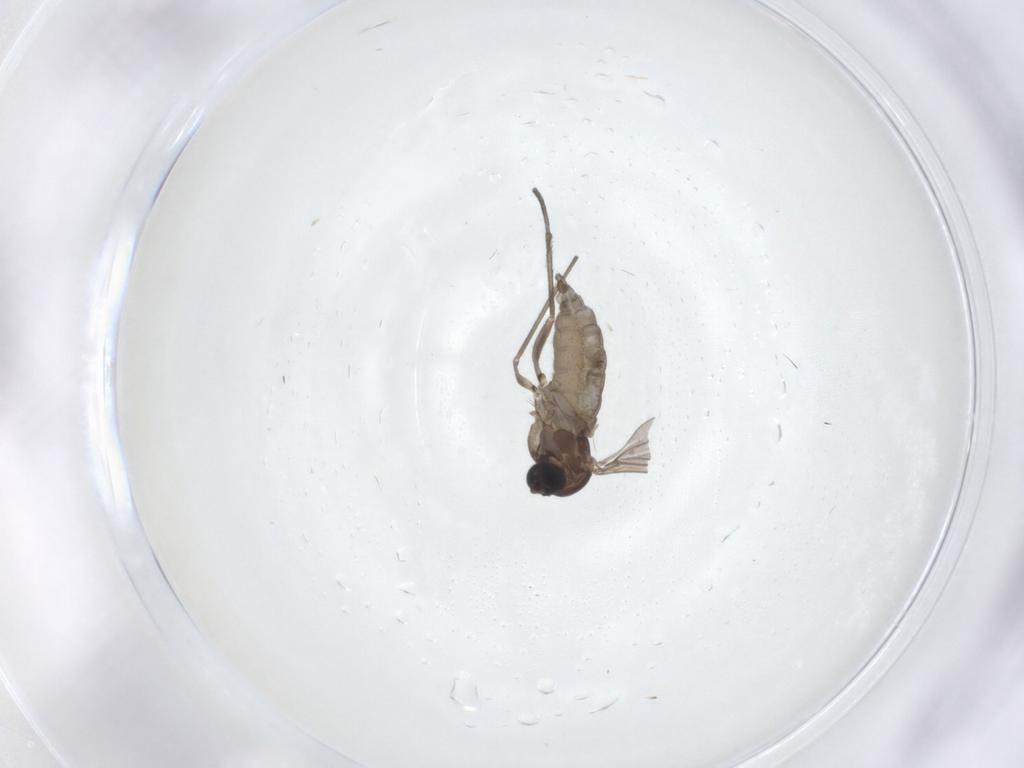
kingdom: Animalia
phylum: Arthropoda
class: Insecta
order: Diptera
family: Sciaridae
